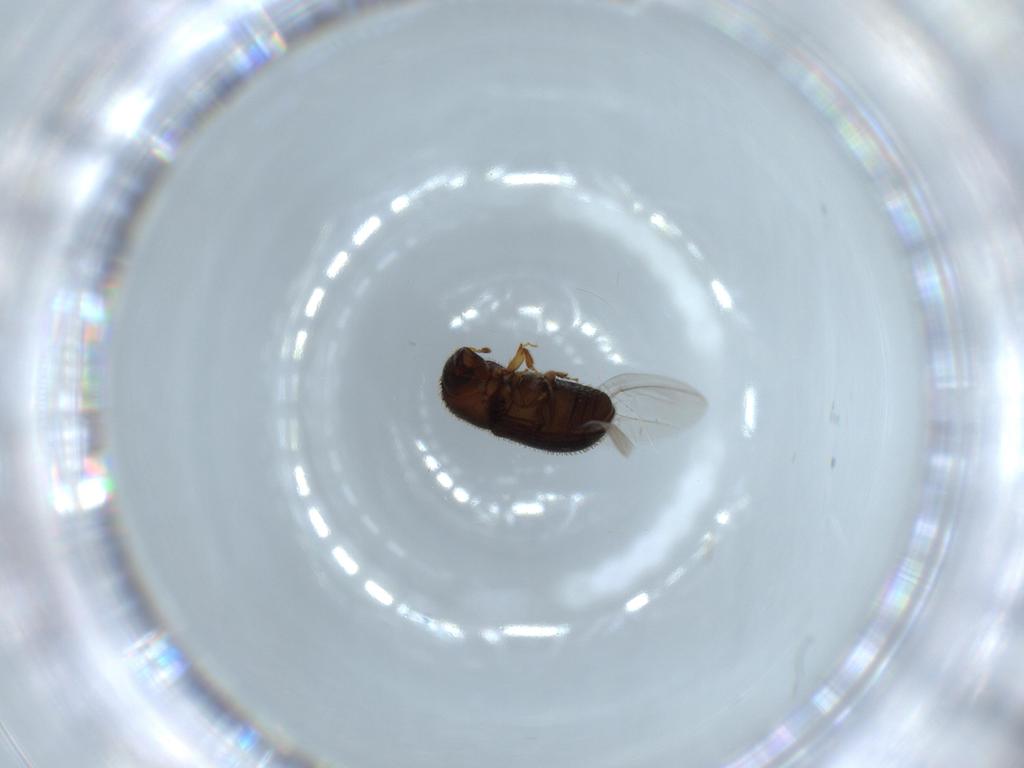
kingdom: Animalia
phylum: Arthropoda
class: Insecta
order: Coleoptera
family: Curculionidae
